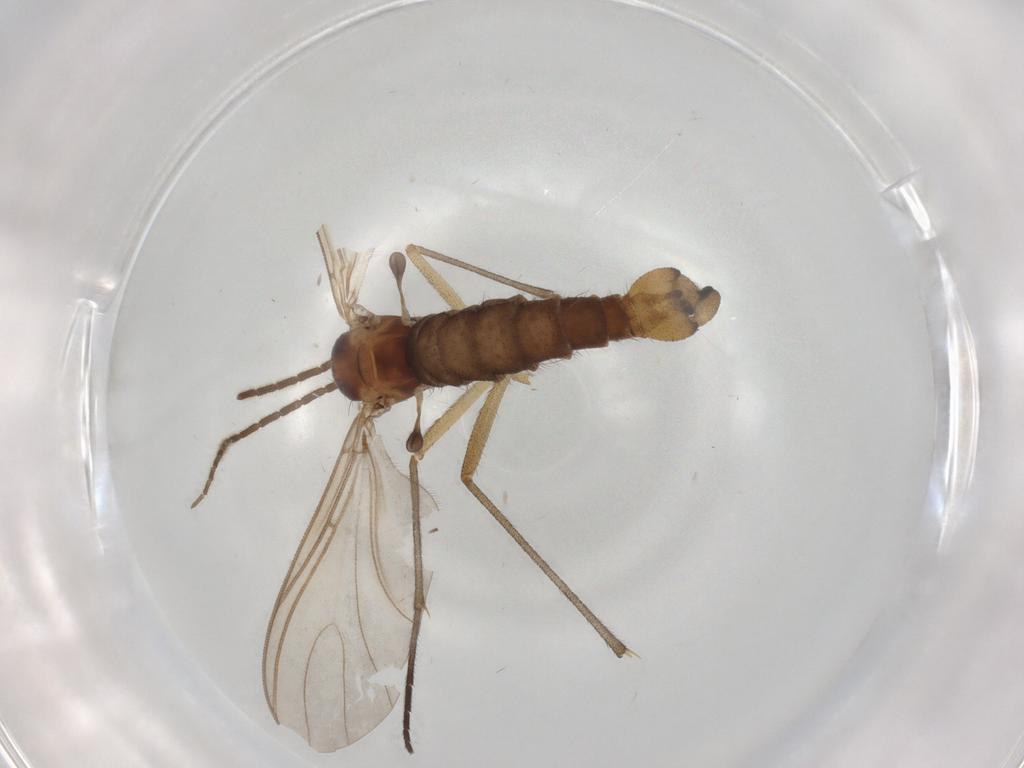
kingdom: Animalia
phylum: Arthropoda
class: Insecta
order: Diptera
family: Sciaridae
